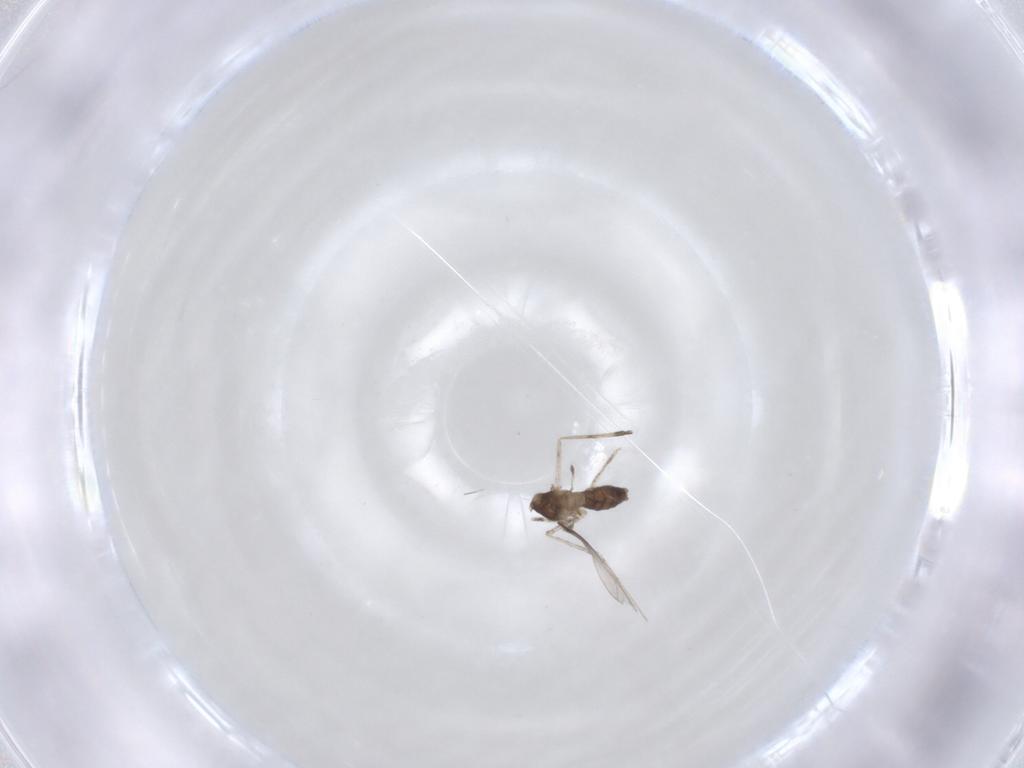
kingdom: Animalia
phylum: Arthropoda
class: Insecta
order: Diptera
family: Cecidomyiidae
